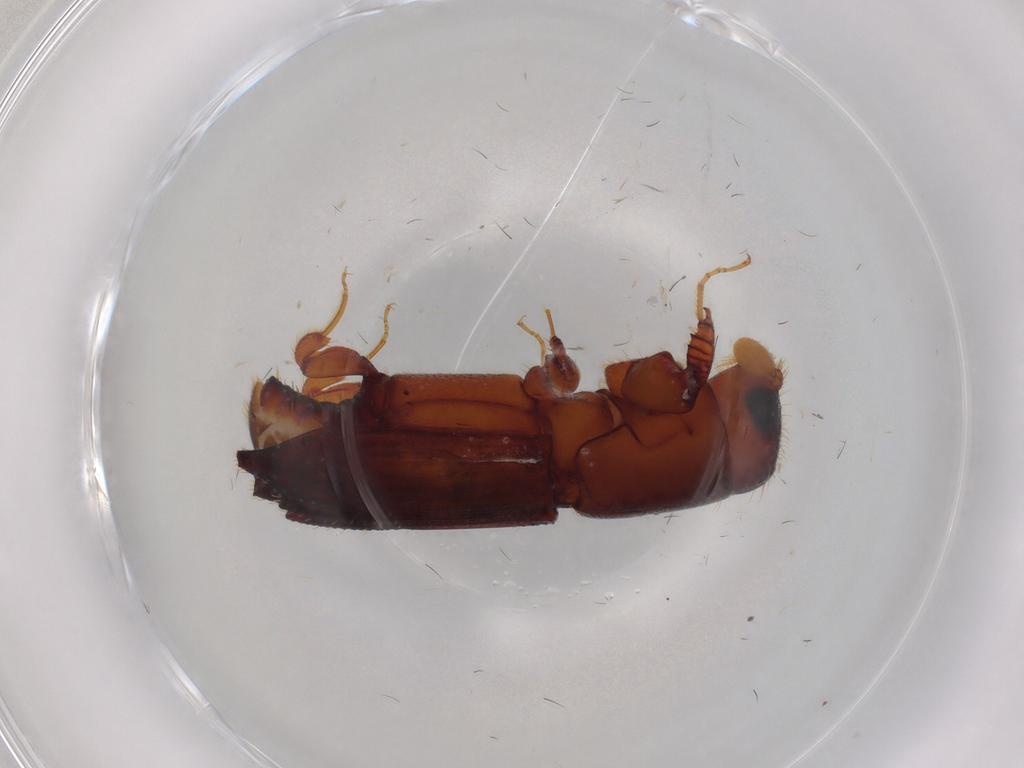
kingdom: Animalia
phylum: Arthropoda
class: Insecta
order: Coleoptera
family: Curculionidae
